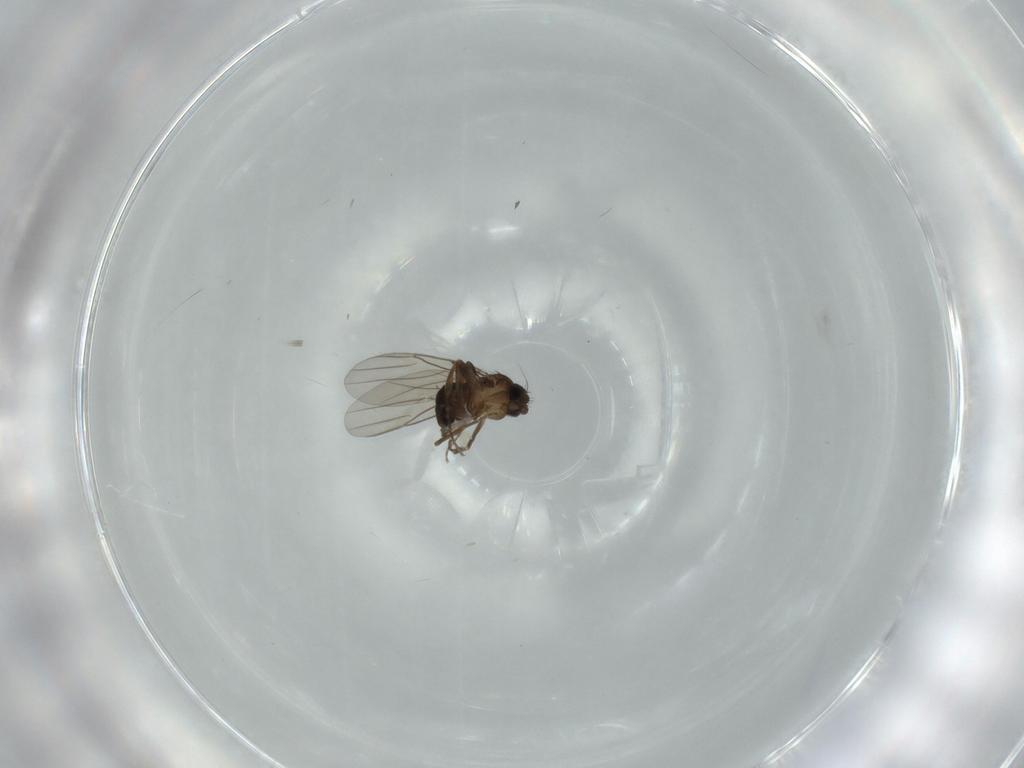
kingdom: Animalia
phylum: Arthropoda
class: Insecta
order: Diptera
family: Phoridae
